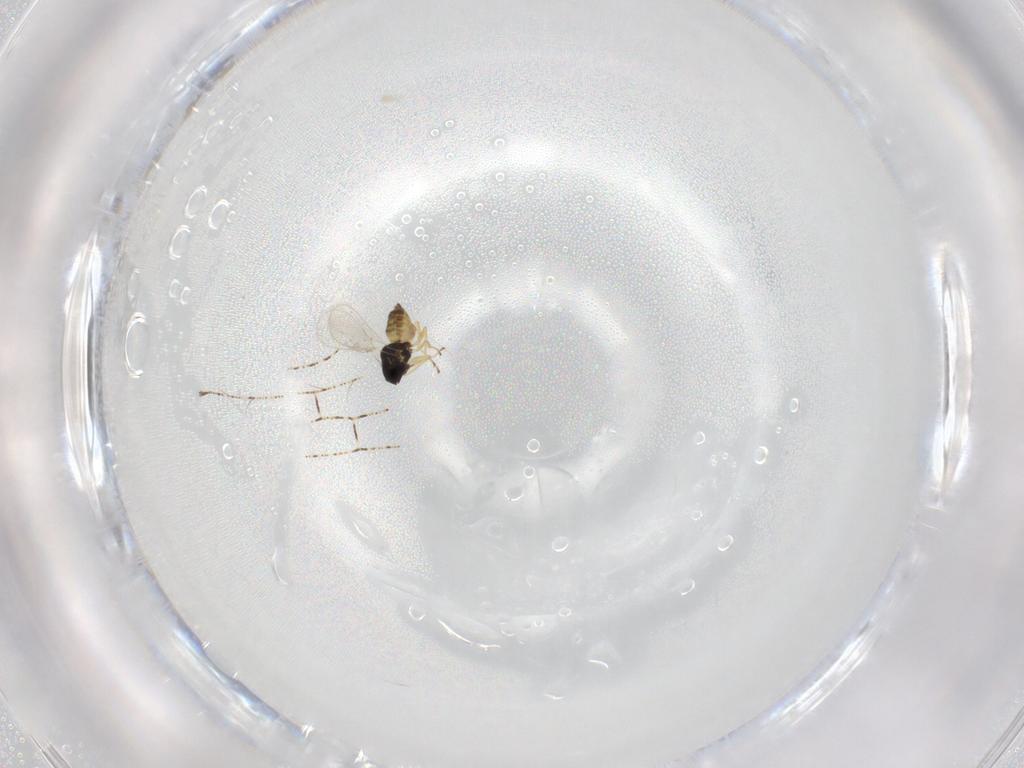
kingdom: Animalia
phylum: Arthropoda
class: Insecta
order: Hymenoptera
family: Eulophidae
